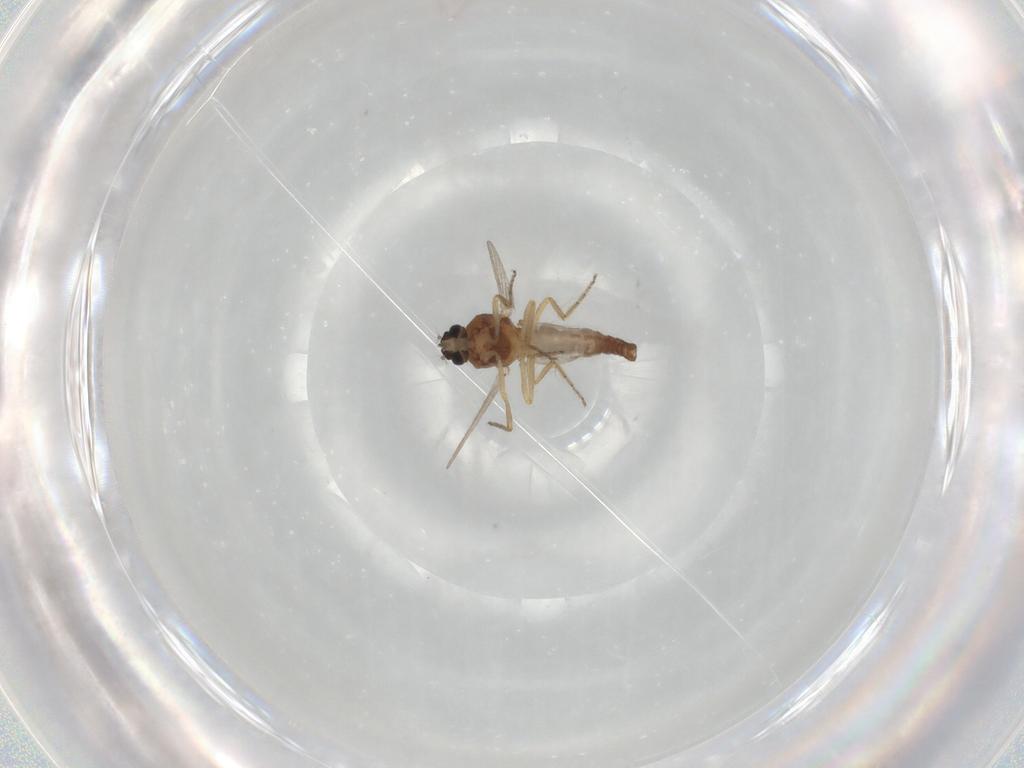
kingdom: Animalia
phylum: Arthropoda
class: Insecta
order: Diptera
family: Ceratopogonidae
